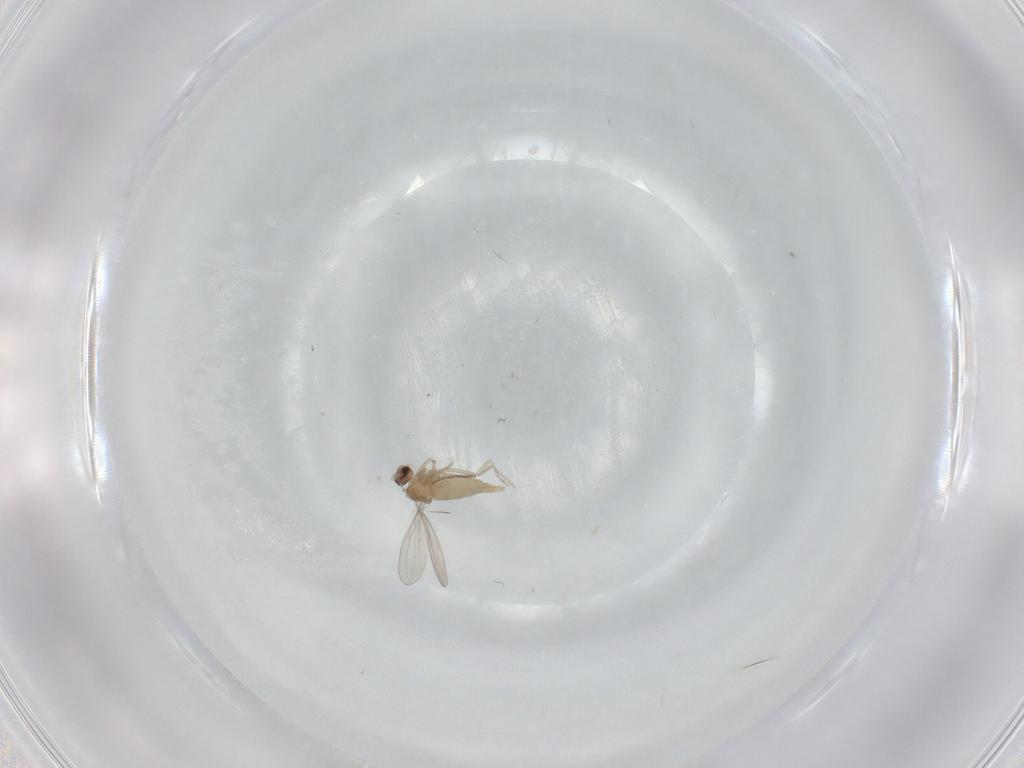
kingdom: Animalia
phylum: Arthropoda
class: Insecta
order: Diptera
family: Cecidomyiidae
